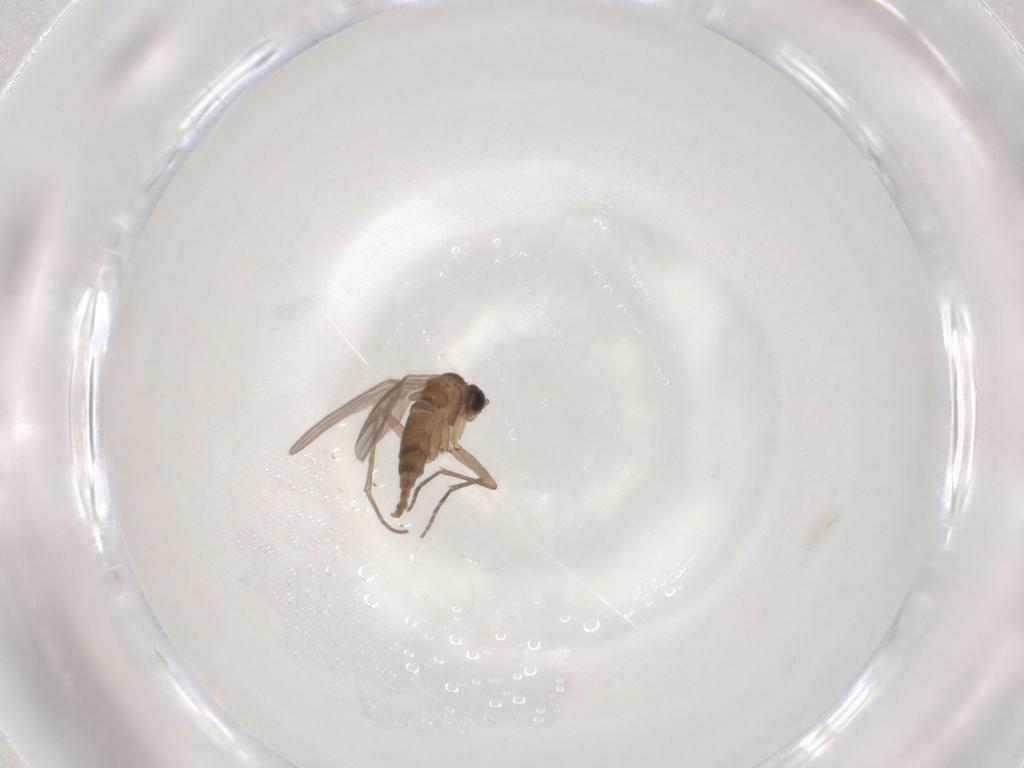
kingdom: Animalia
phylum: Arthropoda
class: Insecta
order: Diptera
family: Sciaridae
